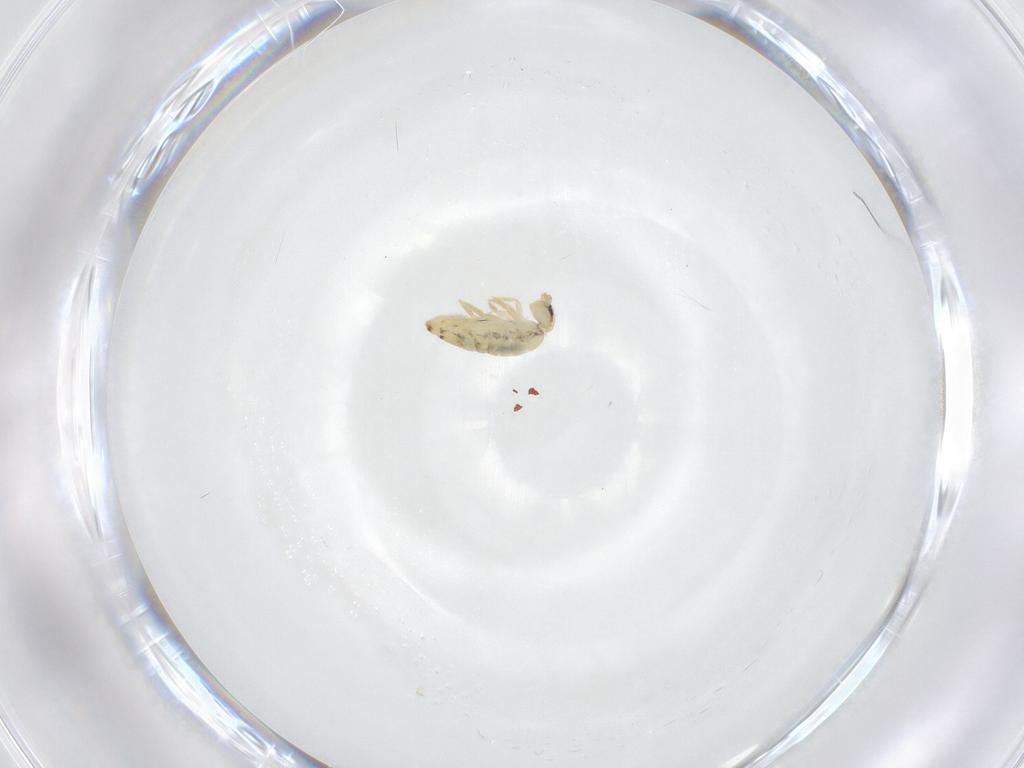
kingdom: Animalia
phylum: Arthropoda
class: Collembola
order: Entomobryomorpha
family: Entomobryidae
